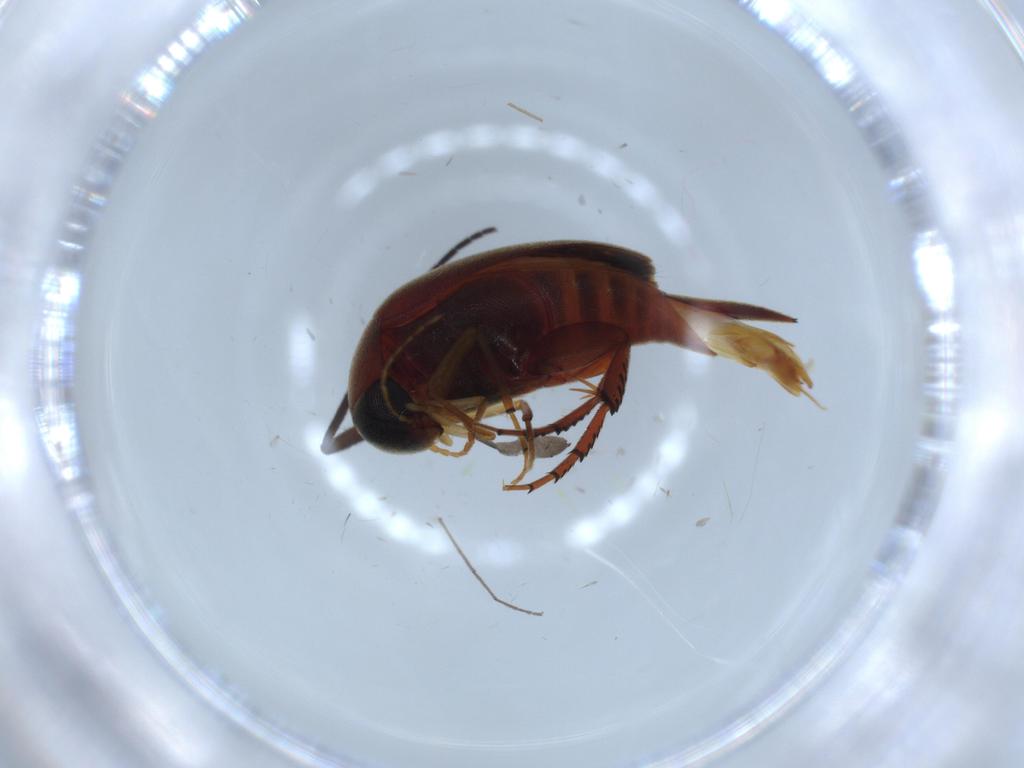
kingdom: Animalia
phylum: Arthropoda
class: Insecta
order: Coleoptera
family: Mordellidae
